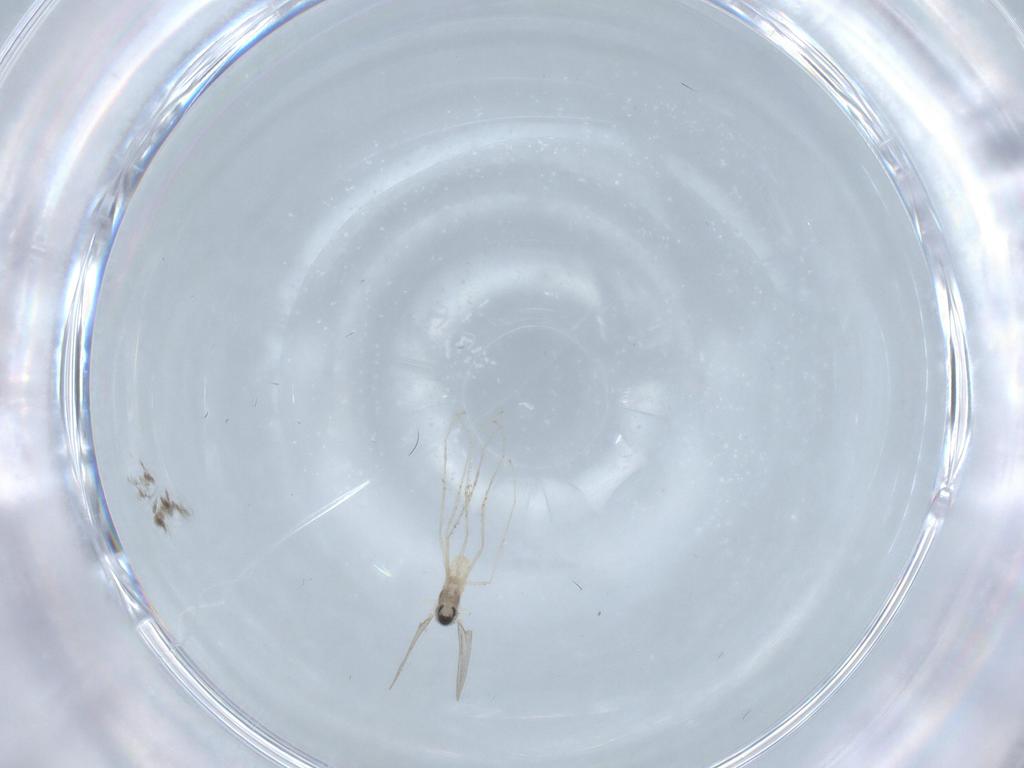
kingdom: Animalia
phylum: Arthropoda
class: Insecta
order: Diptera
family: Cecidomyiidae
